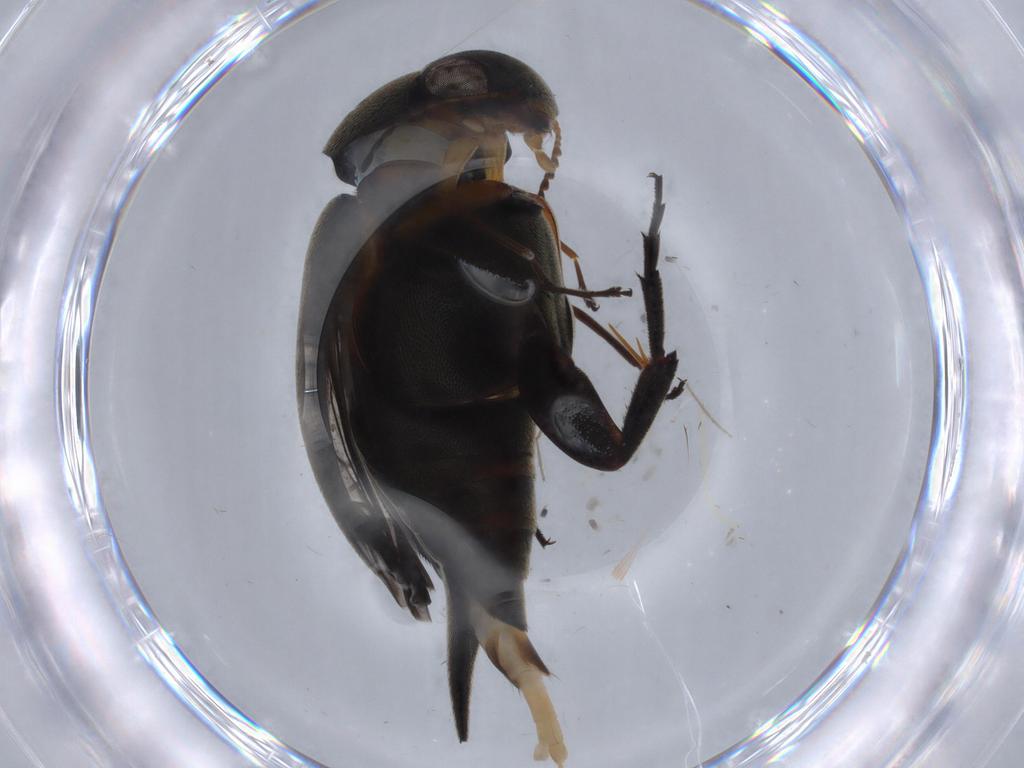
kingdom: Animalia
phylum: Arthropoda
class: Insecta
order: Coleoptera
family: Mordellidae
